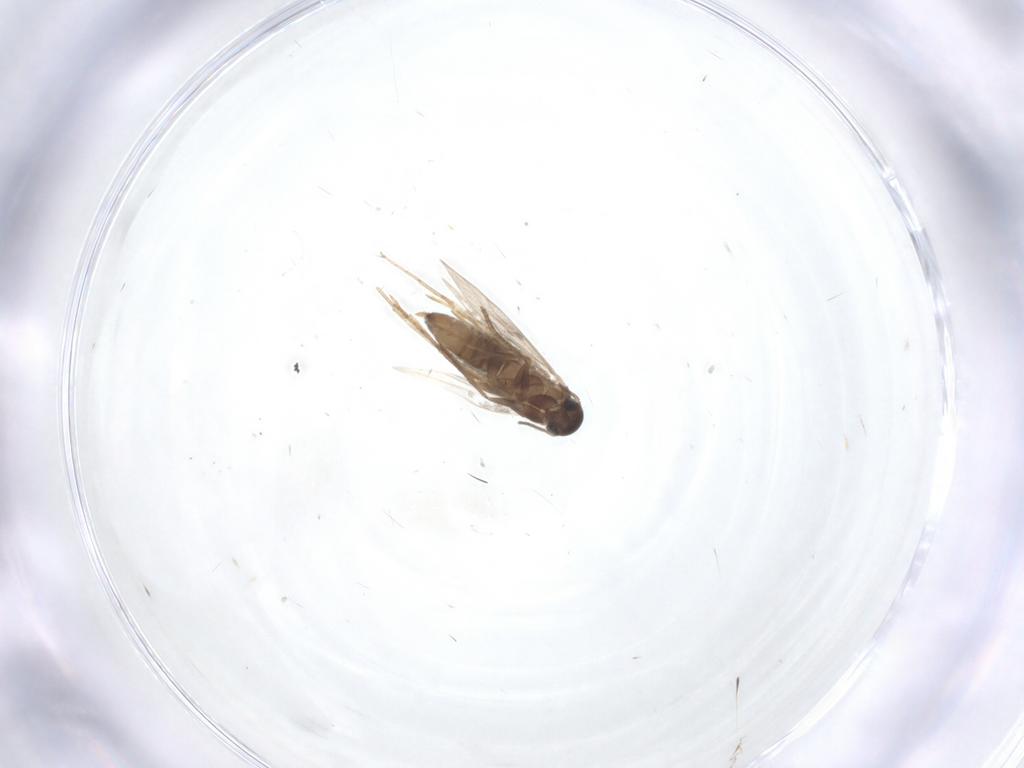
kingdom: Animalia
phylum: Arthropoda
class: Insecta
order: Lepidoptera
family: Heliozelidae
